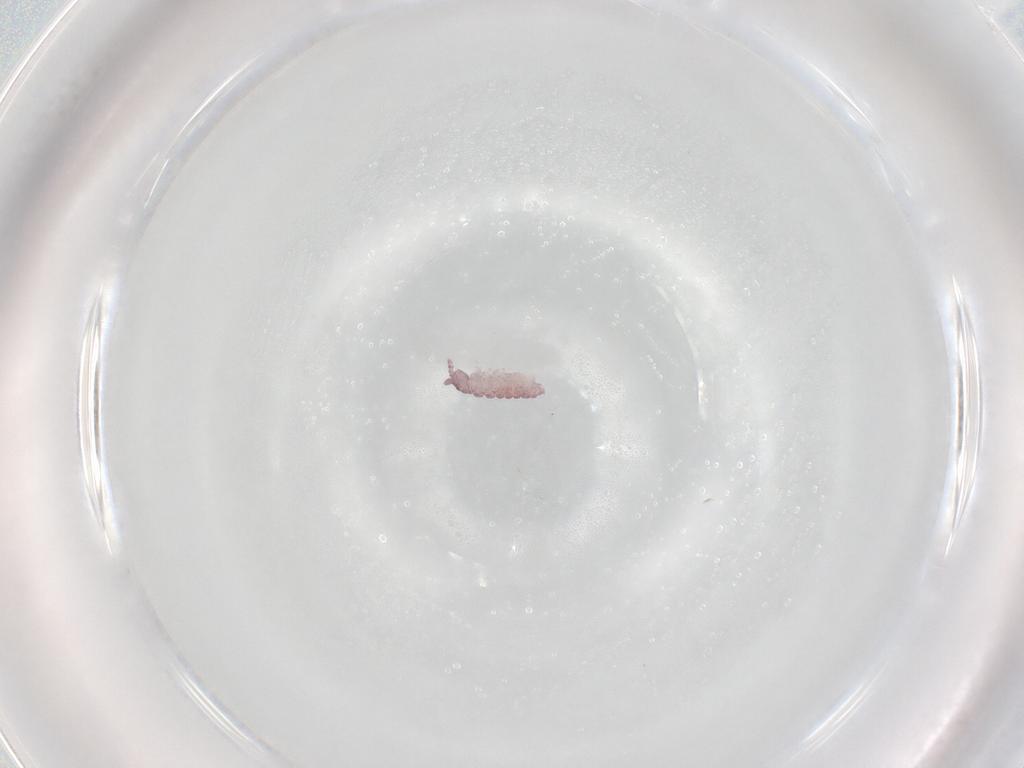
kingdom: Animalia
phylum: Arthropoda
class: Collembola
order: Poduromorpha
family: Hypogastruridae
